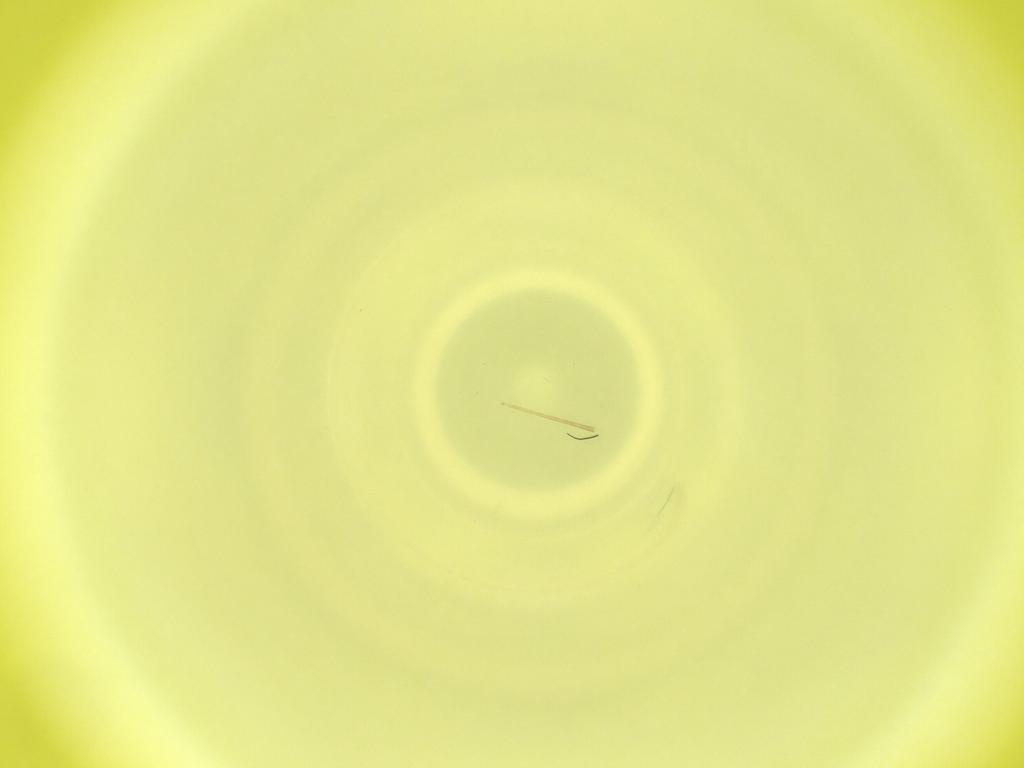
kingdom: Animalia
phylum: Arthropoda
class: Insecta
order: Diptera
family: Cecidomyiidae
